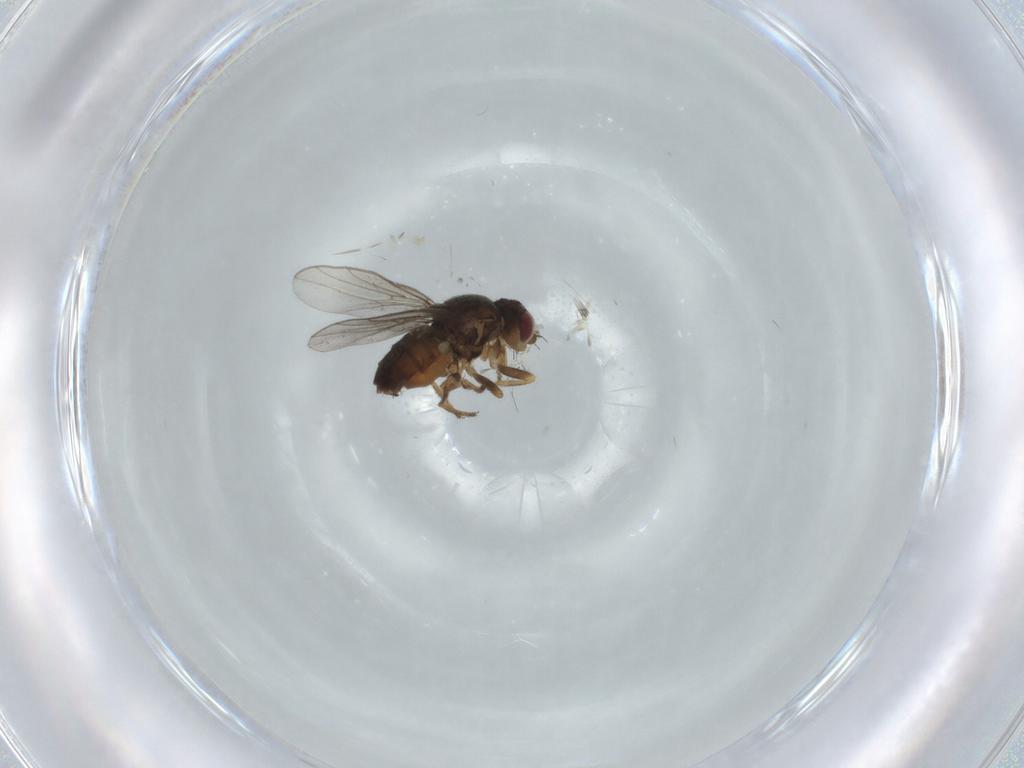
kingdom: Animalia
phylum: Arthropoda
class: Insecta
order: Diptera
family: Chloropidae
